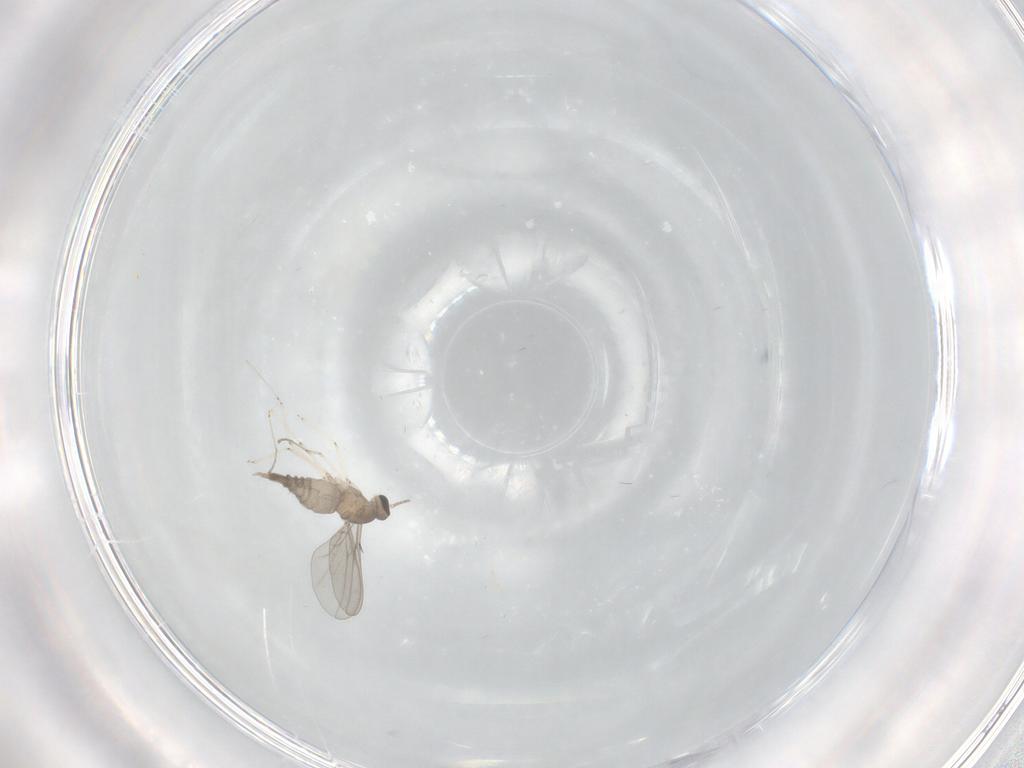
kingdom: Animalia
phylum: Arthropoda
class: Insecta
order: Diptera
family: Cecidomyiidae
